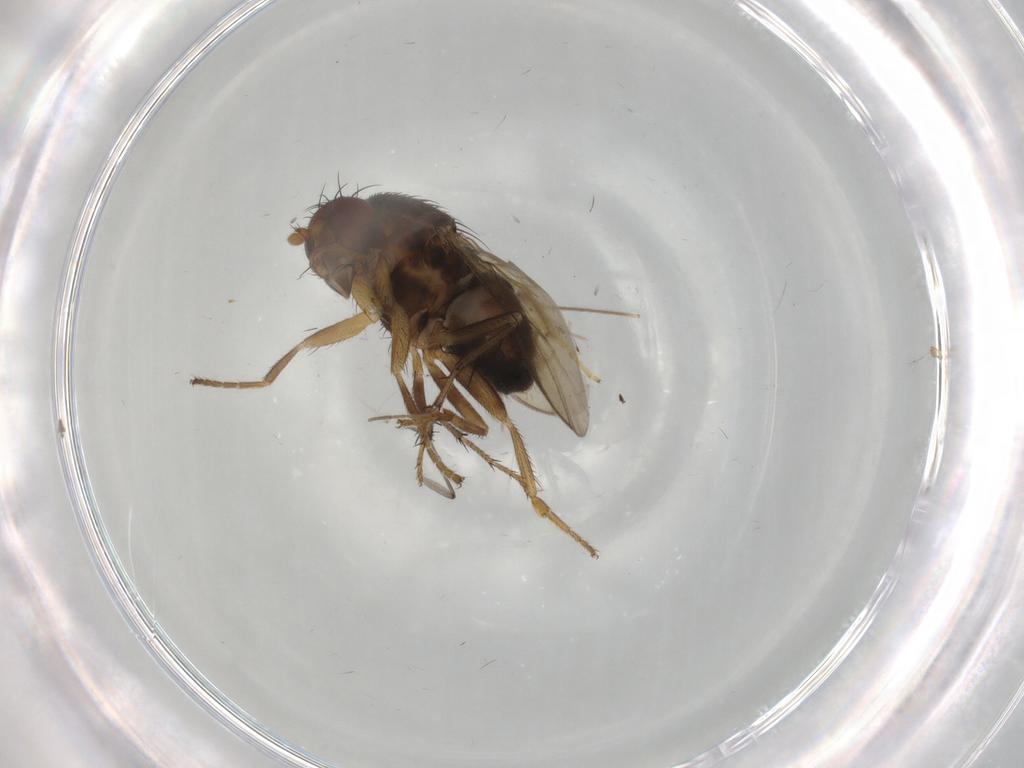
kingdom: Animalia
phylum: Arthropoda
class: Insecta
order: Diptera
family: Sphaeroceridae
